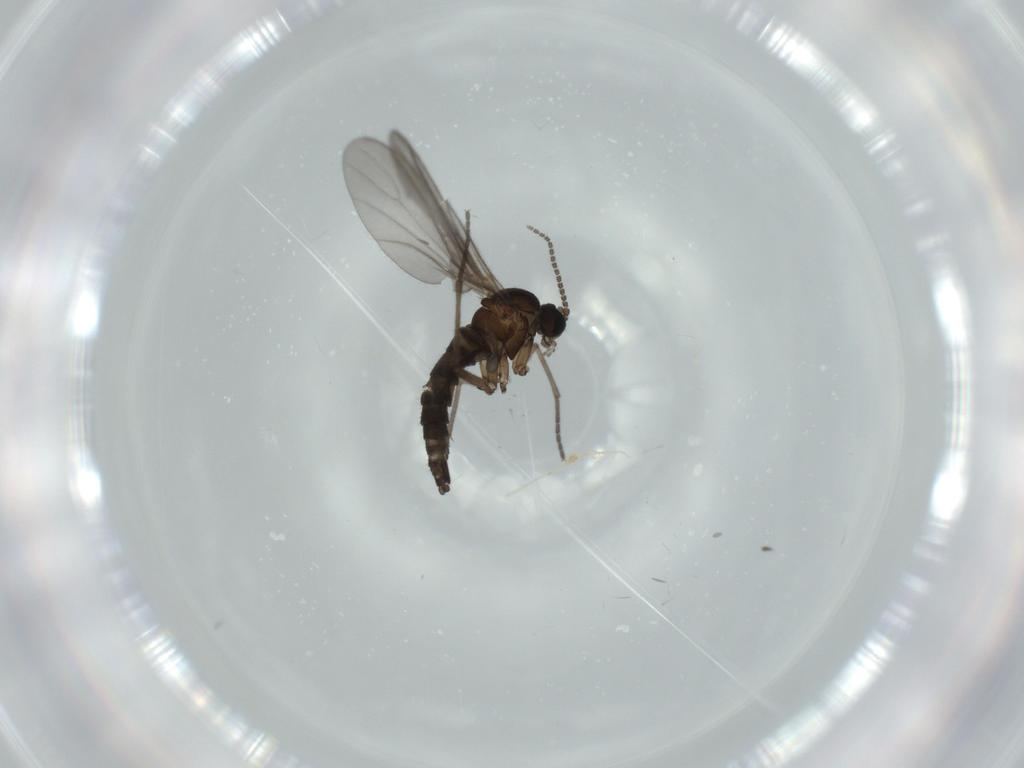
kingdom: Animalia
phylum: Arthropoda
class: Insecta
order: Diptera
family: Sciaridae
